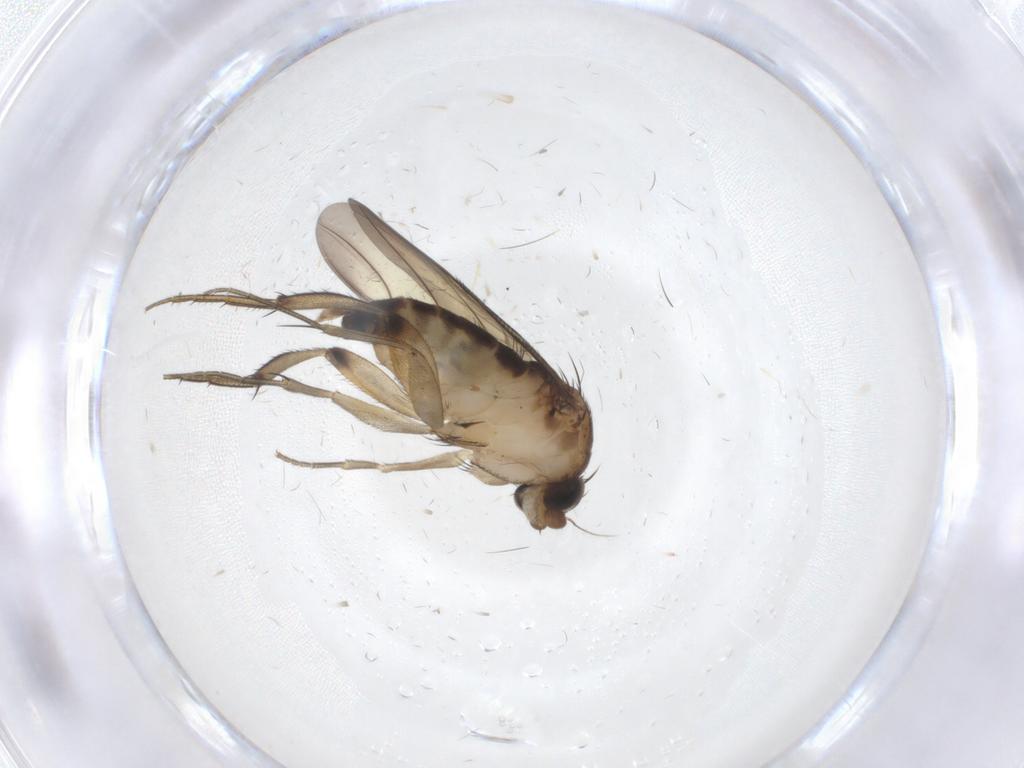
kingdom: Animalia
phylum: Arthropoda
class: Insecta
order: Diptera
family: Phoridae
